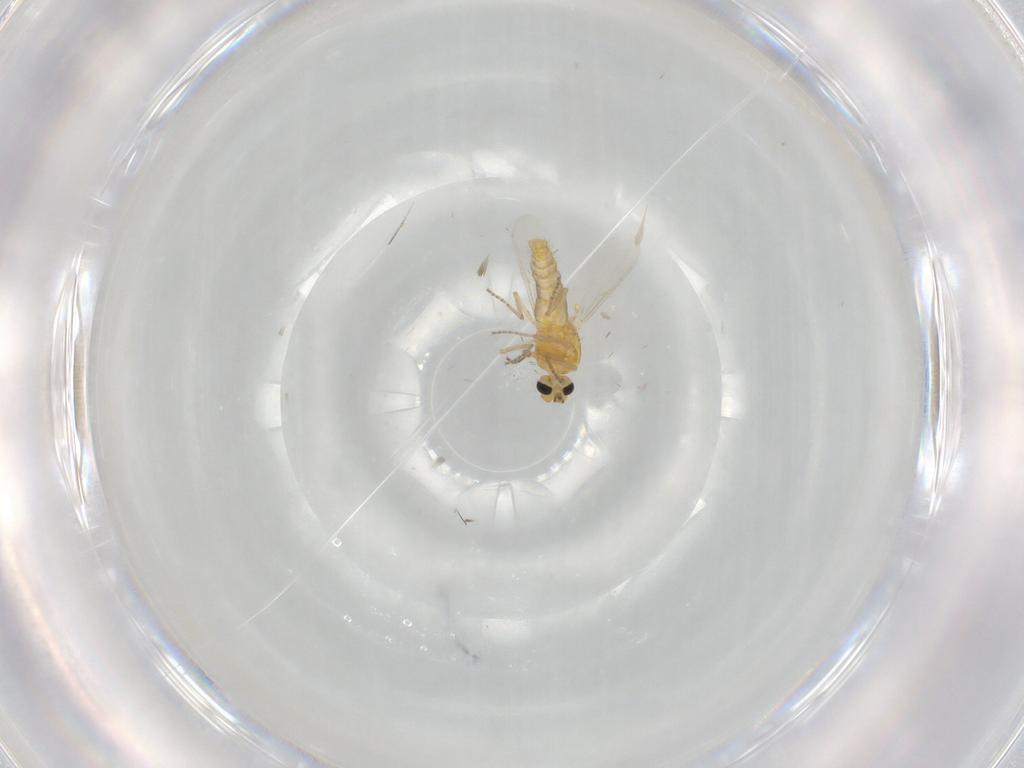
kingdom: Animalia
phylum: Arthropoda
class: Insecta
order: Diptera
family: Ceratopogonidae
